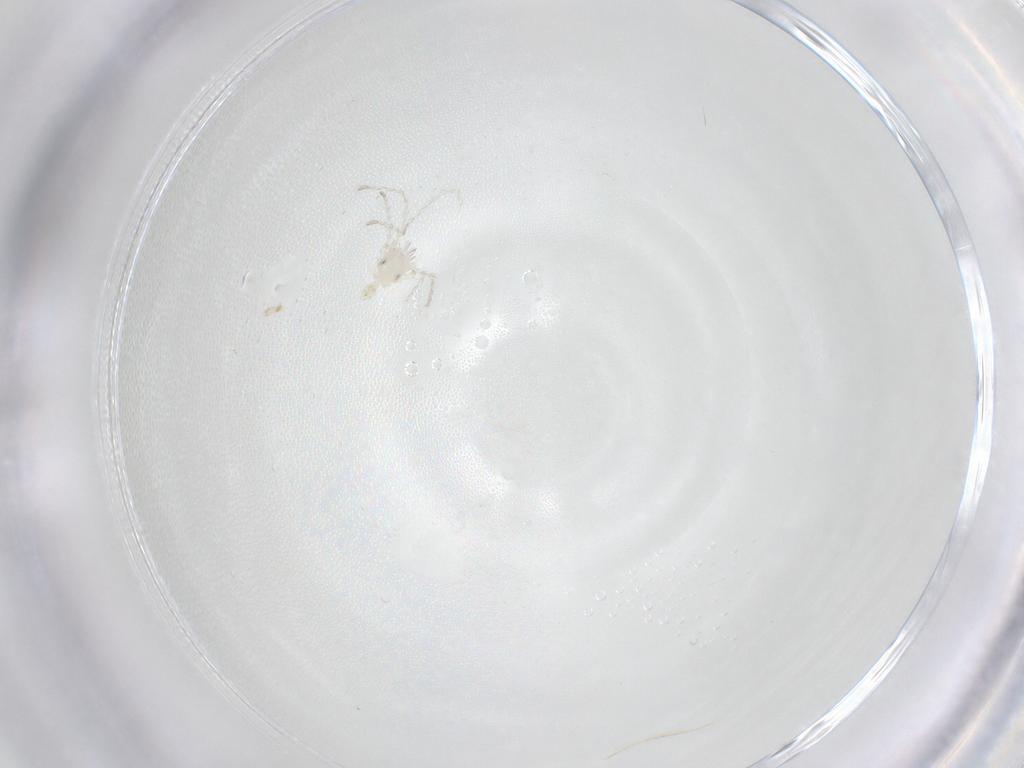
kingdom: Animalia
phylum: Arthropoda
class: Arachnida
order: Trombidiformes
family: Erythraeidae
